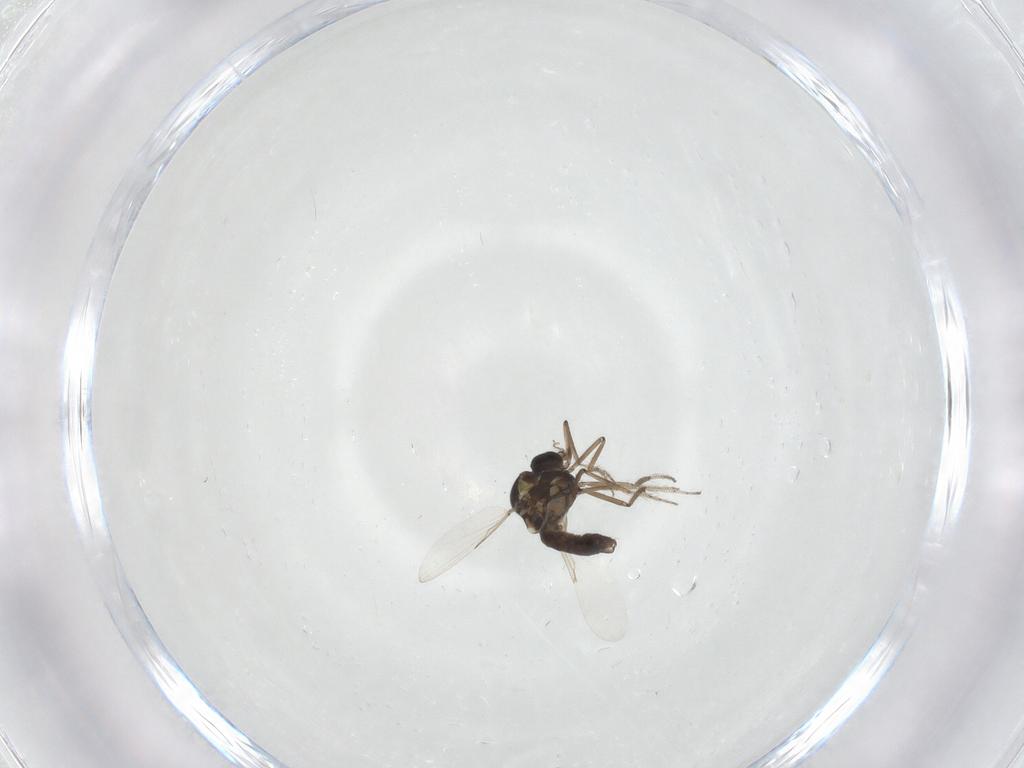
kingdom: Animalia
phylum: Arthropoda
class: Insecta
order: Diptera
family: Ceratopogonidae
